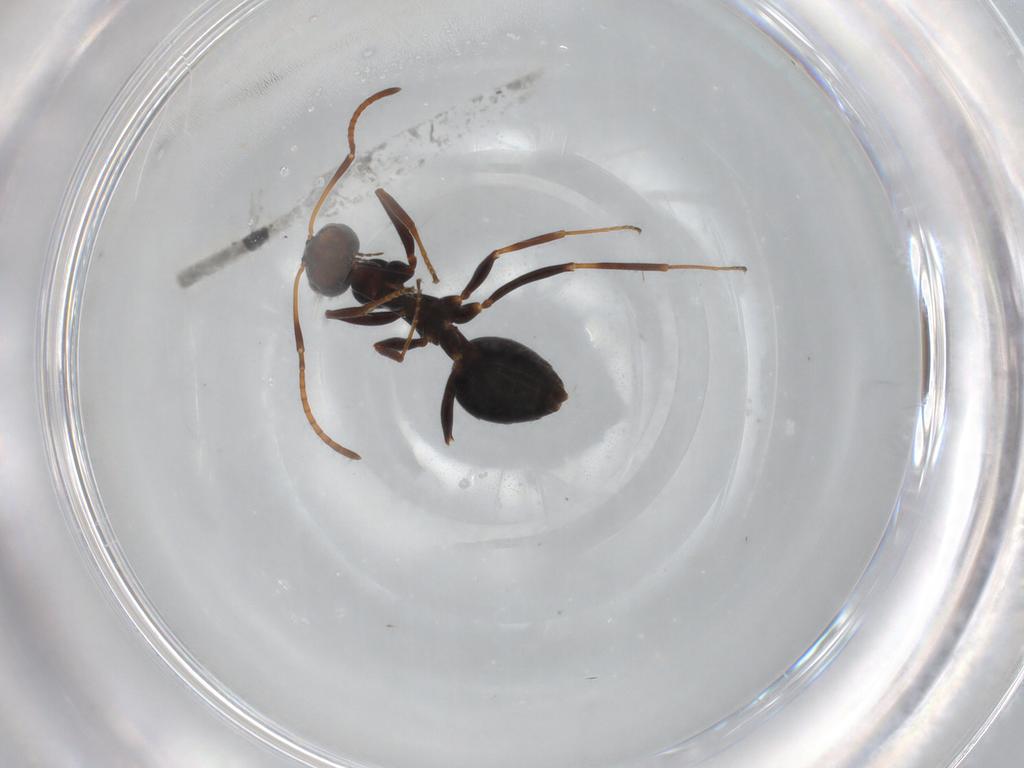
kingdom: Animalia
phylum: Arthropoda
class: Insecta
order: Hymenoptera
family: Formicidae
